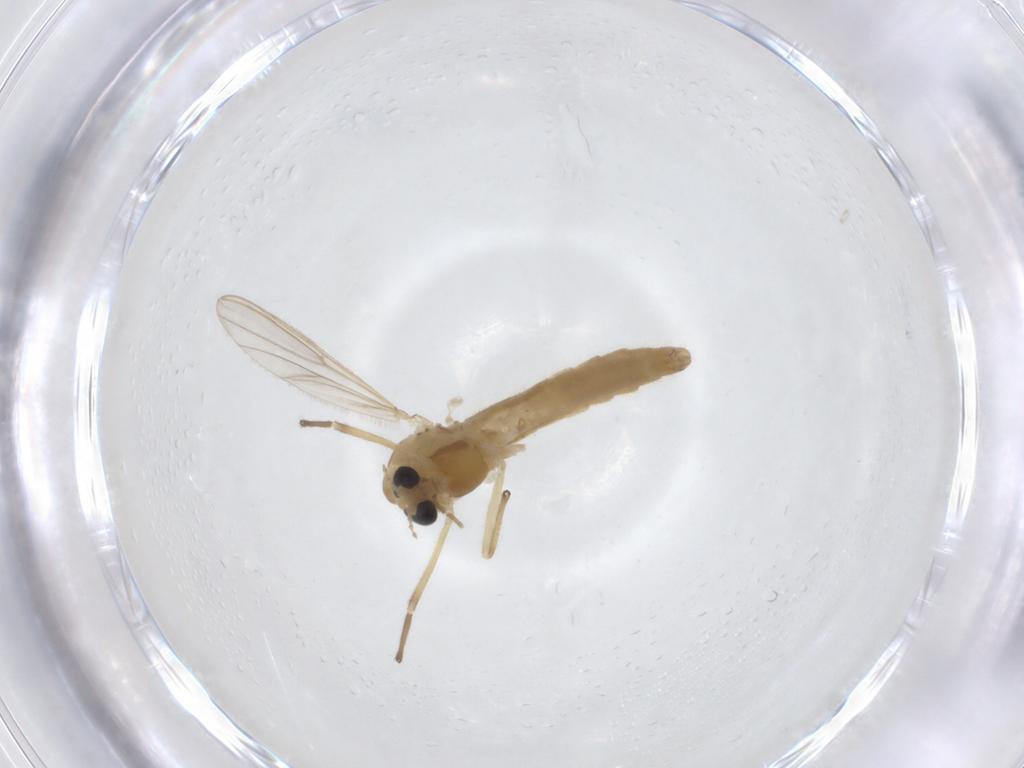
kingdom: Animalia
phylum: Arthropoda
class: Insecta
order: Diptera
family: Chironomidae
